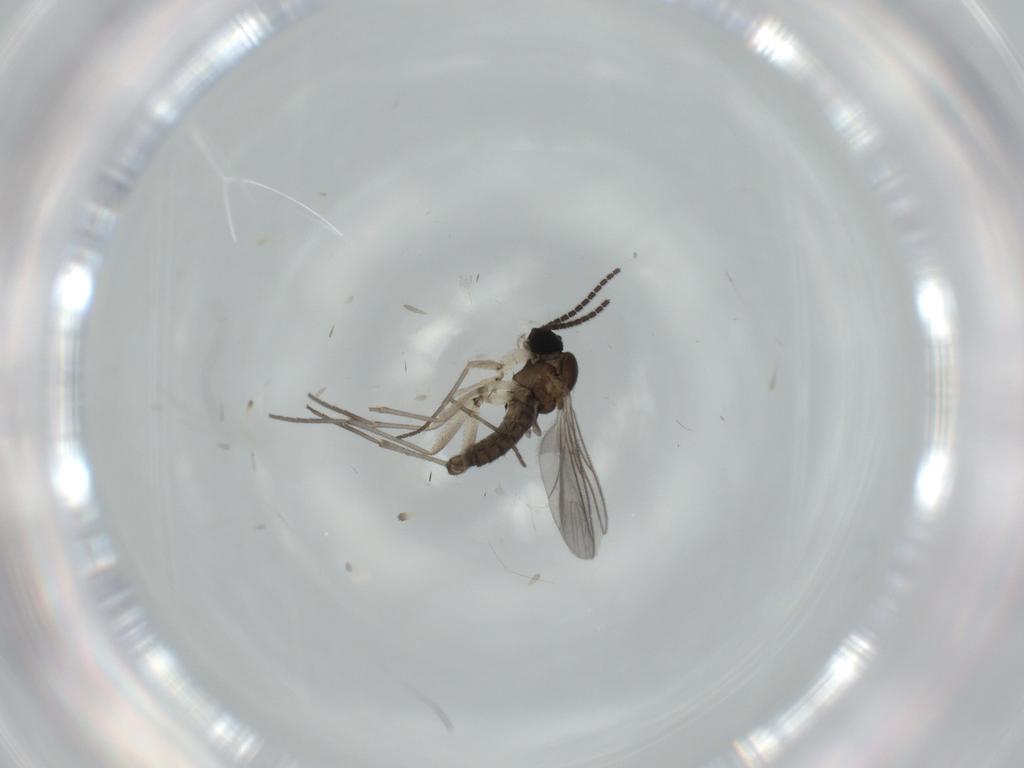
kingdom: Animalia
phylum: Arthropoda
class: Insecta
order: Diptera
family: Sciaridae
